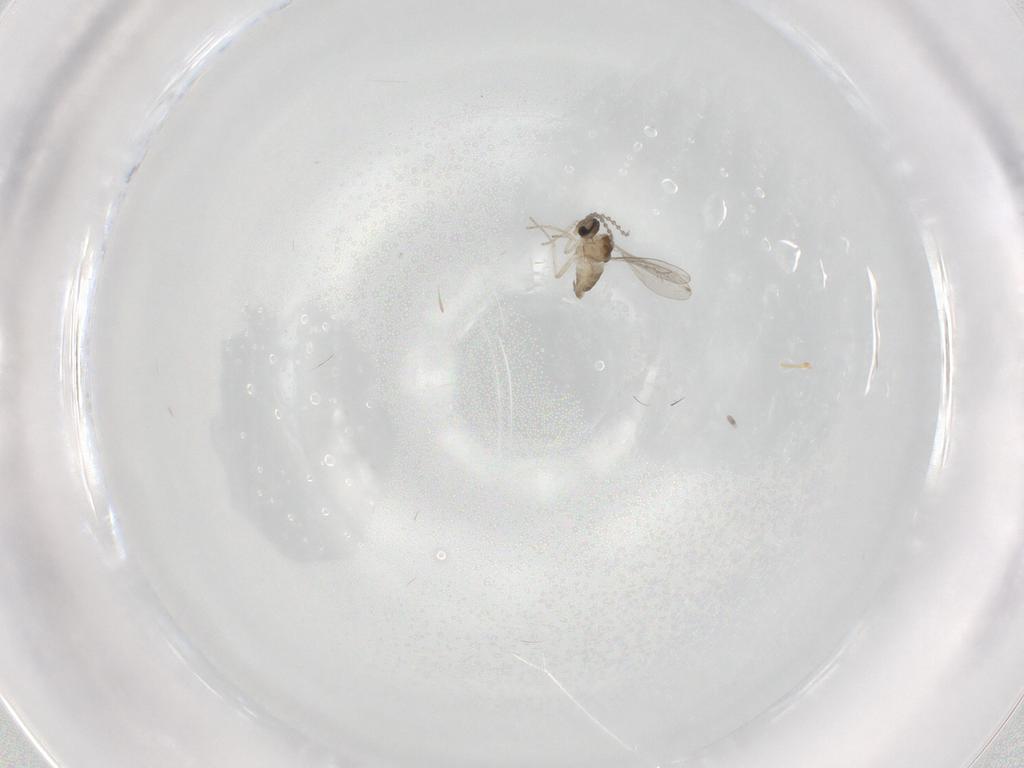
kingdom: Animalia
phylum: Arthropoda
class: Insecta
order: Diptera
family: Cecidomyiidae
